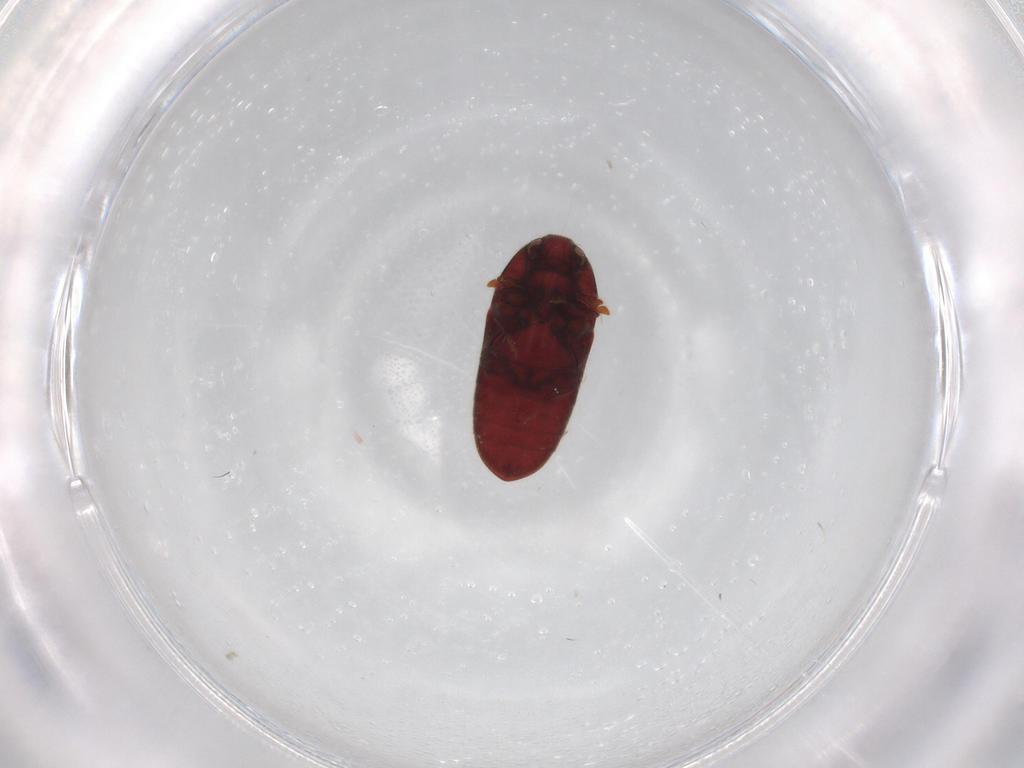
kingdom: Animalia
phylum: Arthropoda
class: Insecta
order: Coleoptera
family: Throscidae
